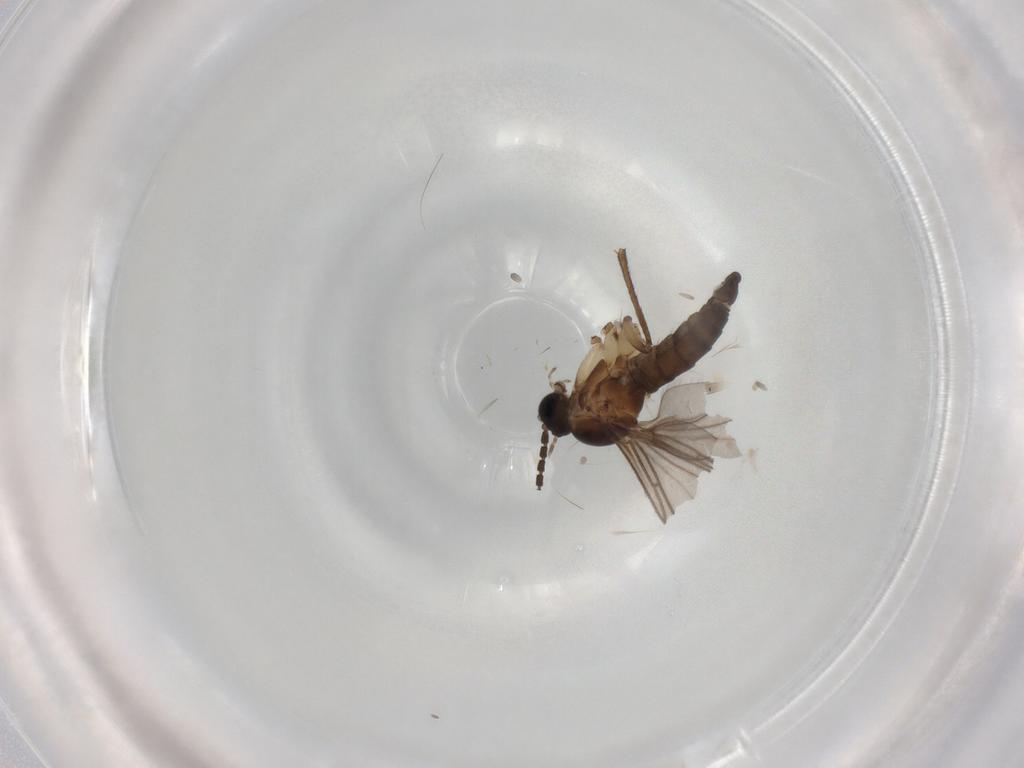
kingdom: Animalia
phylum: Arthropoda
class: Insecta
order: Diptera
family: Sciaridae
